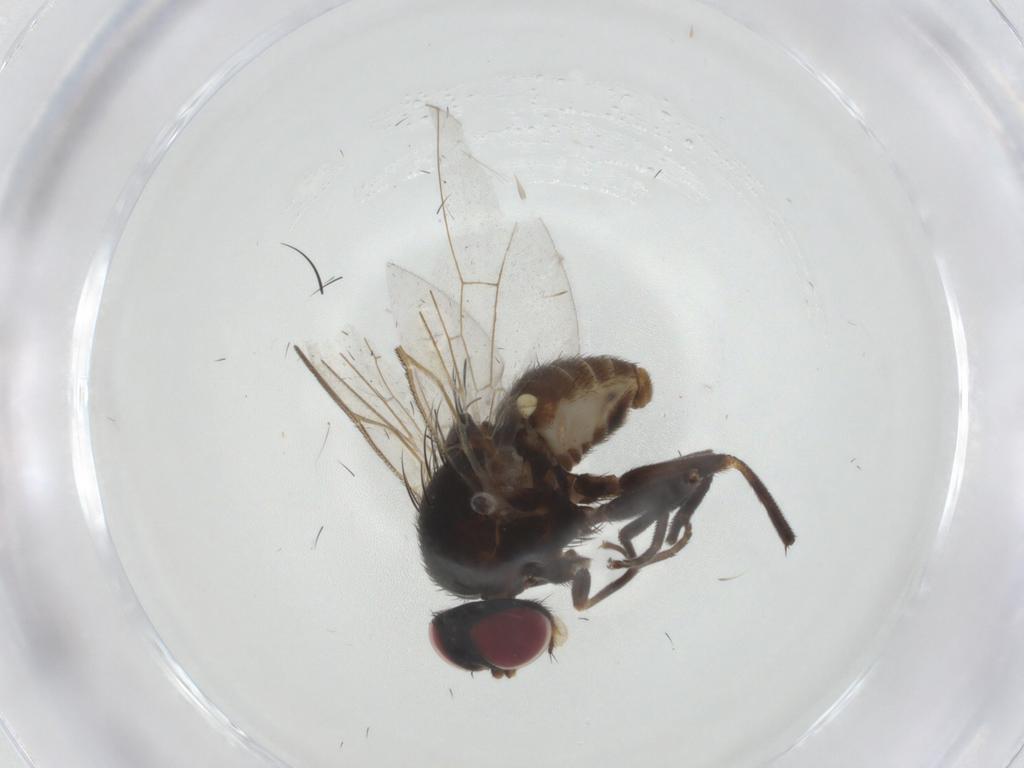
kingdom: Animalia
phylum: Arthropoda
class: Insecta
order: Diptera
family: Agromyzidae
